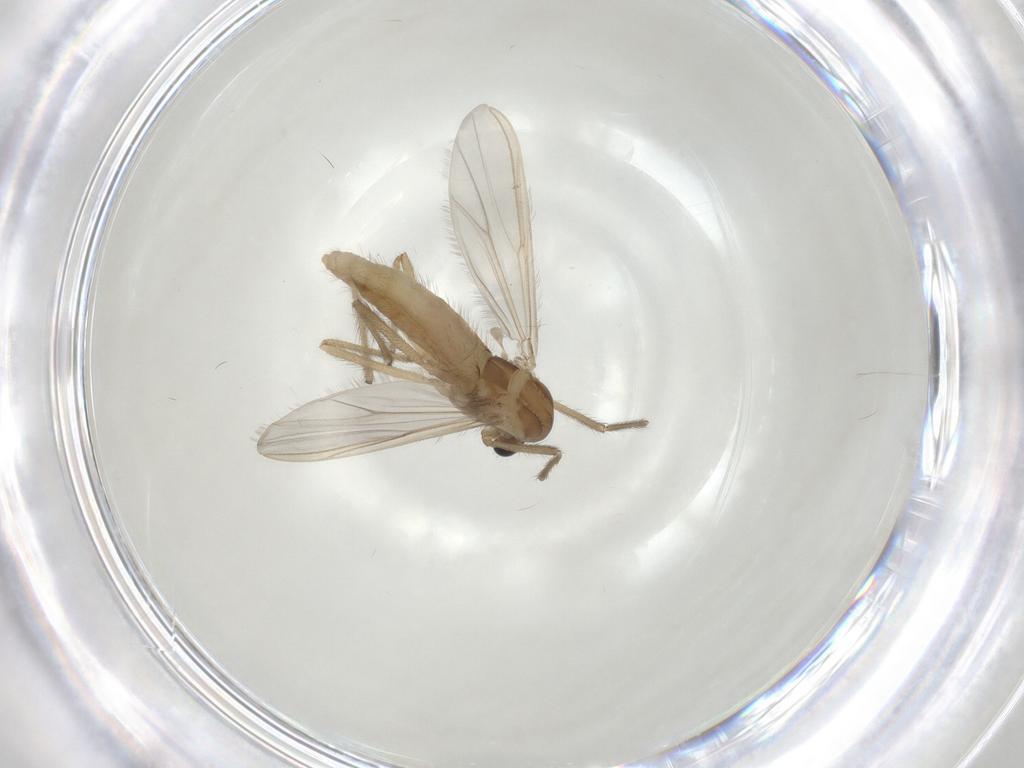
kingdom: Animalia
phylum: Arthropoda
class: Insecta
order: Diptera
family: Chironomidae
